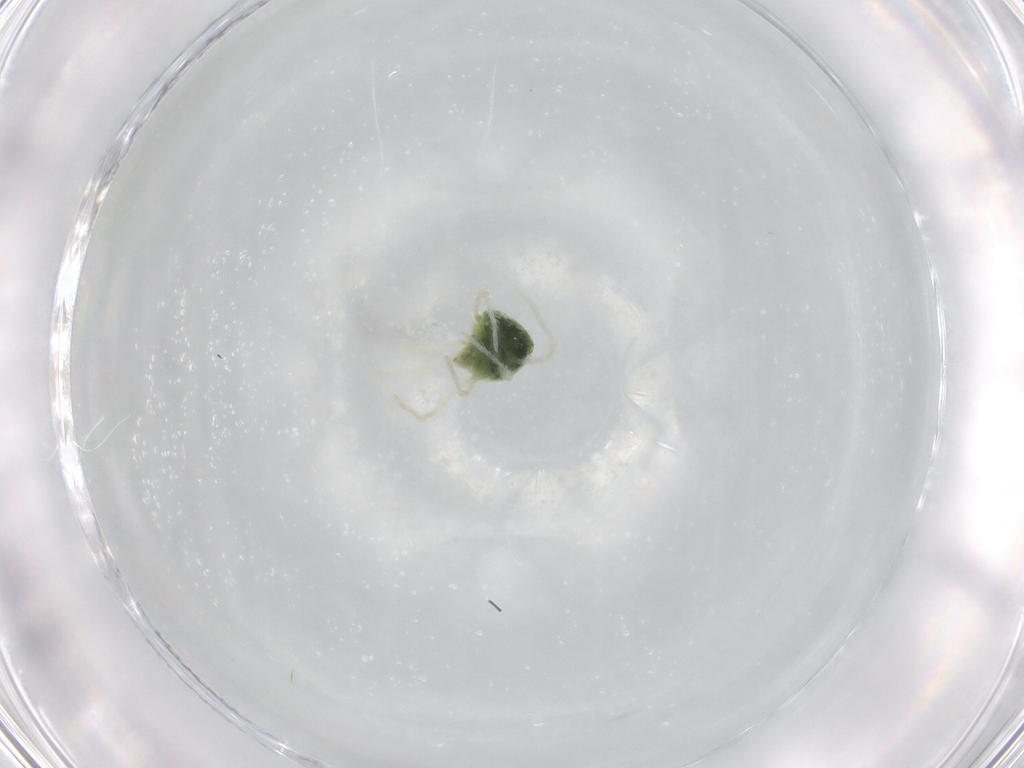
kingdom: Animalia
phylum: Arthropoda
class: Arachnida
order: Trombidiformes
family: Penthaleidae
